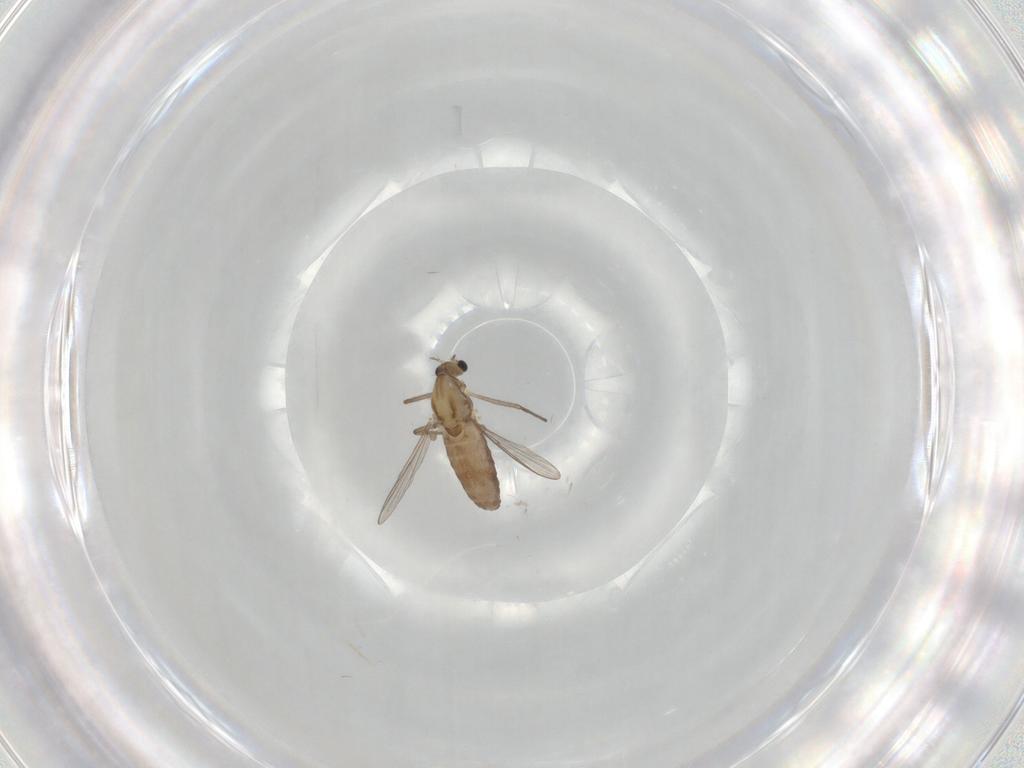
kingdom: Animalia
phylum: Arthropoda
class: Insecta
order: Diptera
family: Chironomidae
